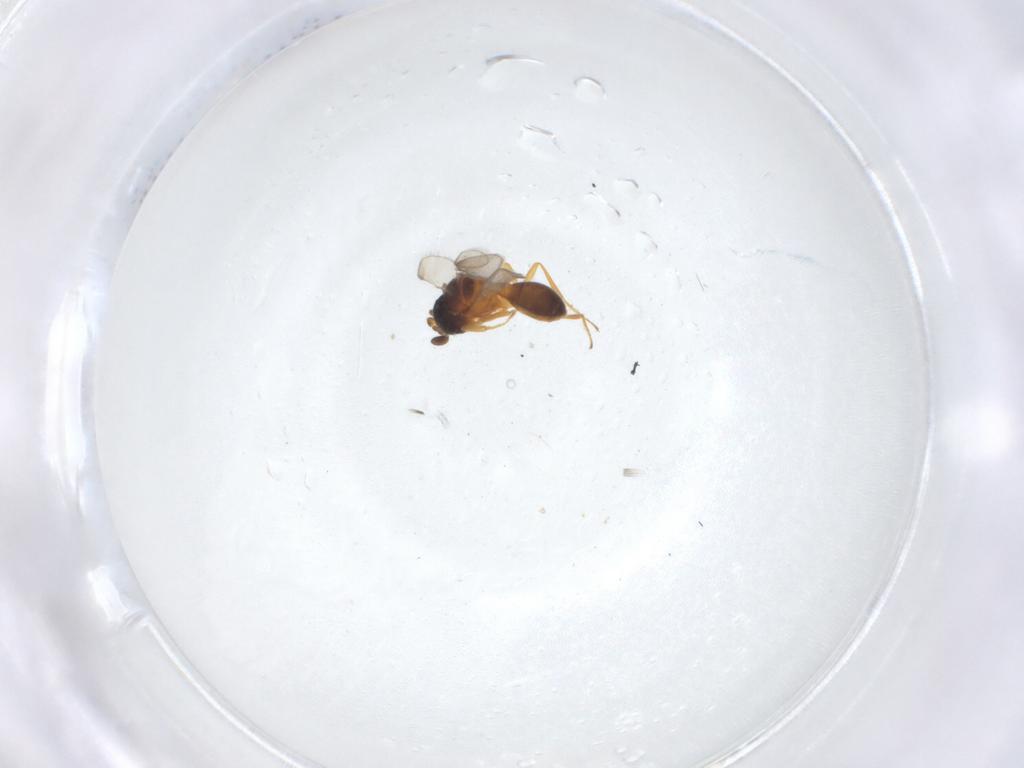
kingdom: Animalia
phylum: Arthropoda
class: Insecta
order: Hymenoptera
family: Scelionidae
